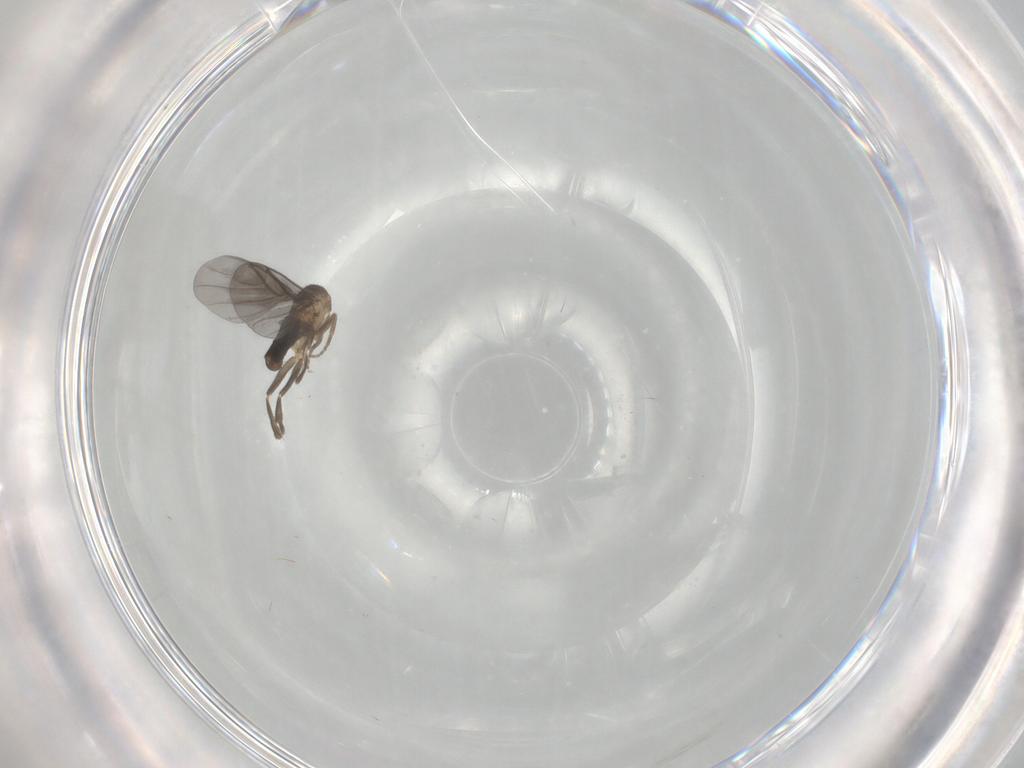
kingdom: Animalia
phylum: Arthropoda
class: Insecta
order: Diptera
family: Phoridae
